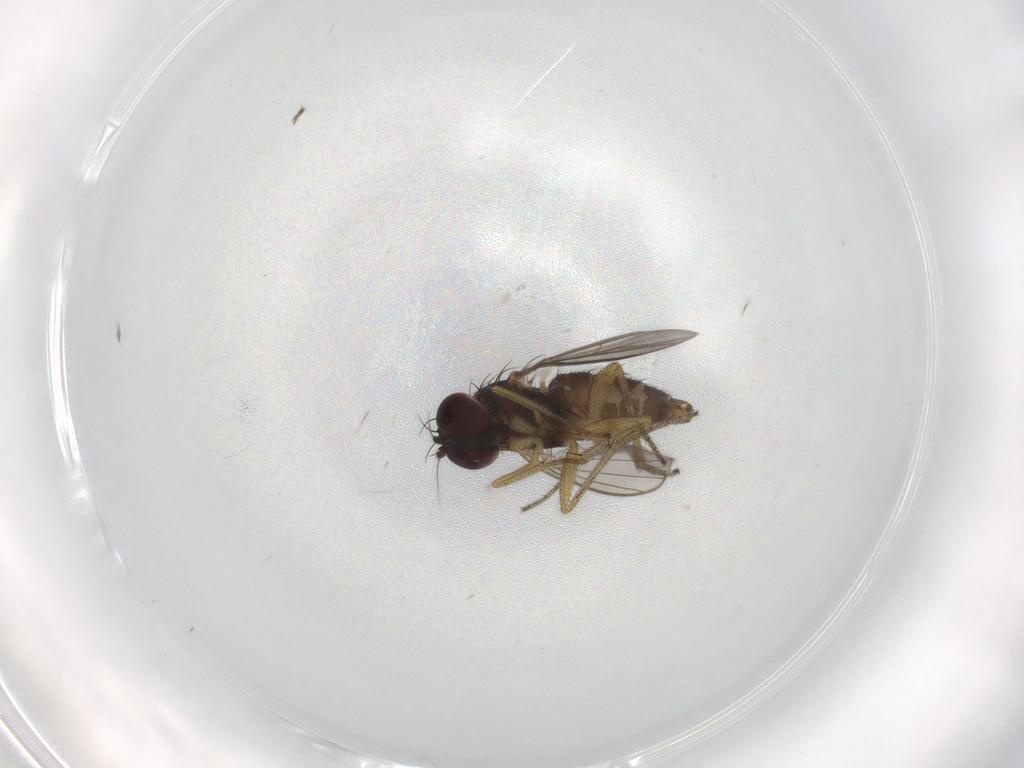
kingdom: Animalia
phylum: Arthropoda
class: Insecta
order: Diptera
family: Dolichopodidae
